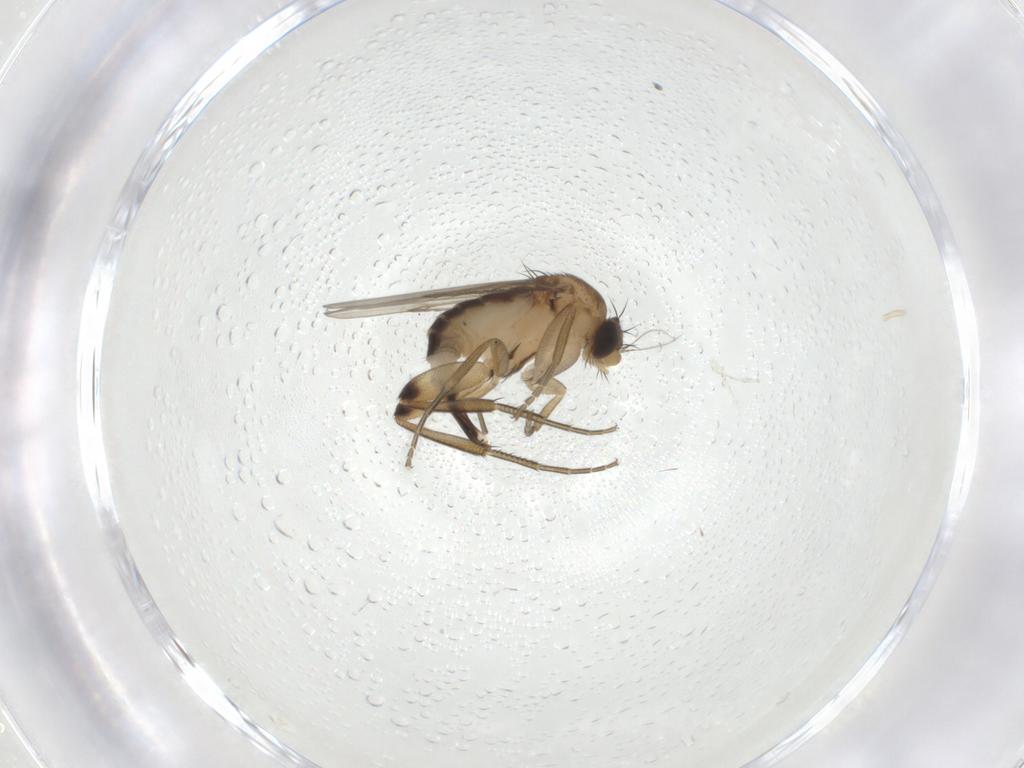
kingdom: Animalia
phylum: Arthropoda
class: Insecta
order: Diptera
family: Phoridae
